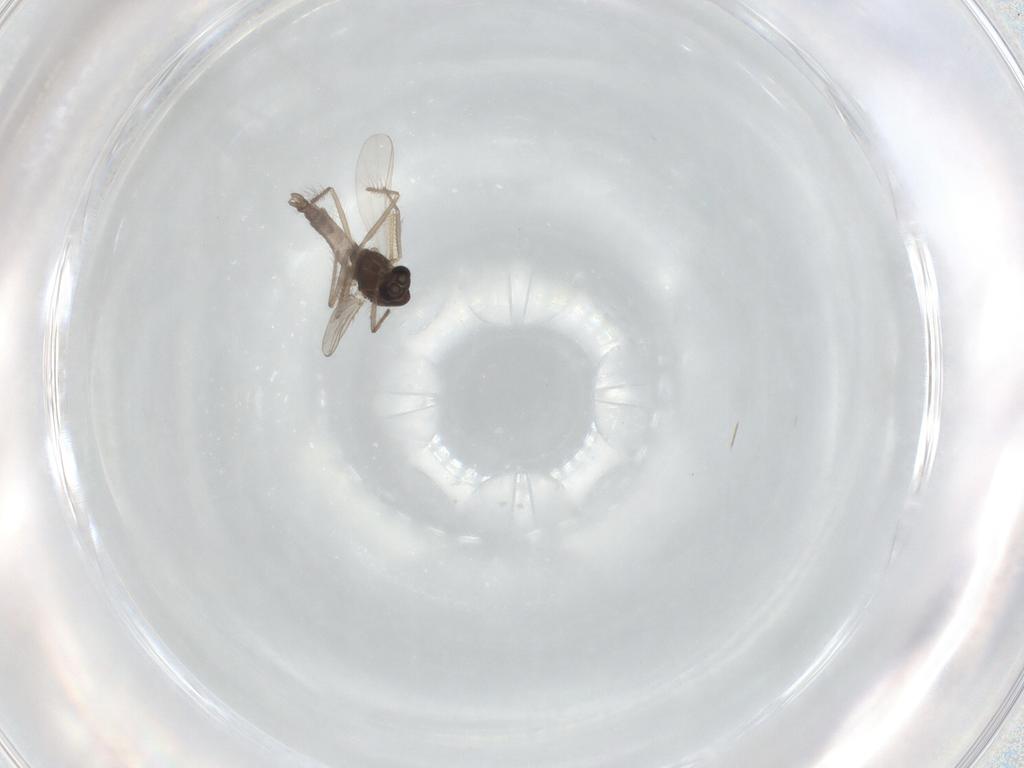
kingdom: Animalia
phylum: Arthropoda
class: Insecta
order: Diptera
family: Chironomidae
